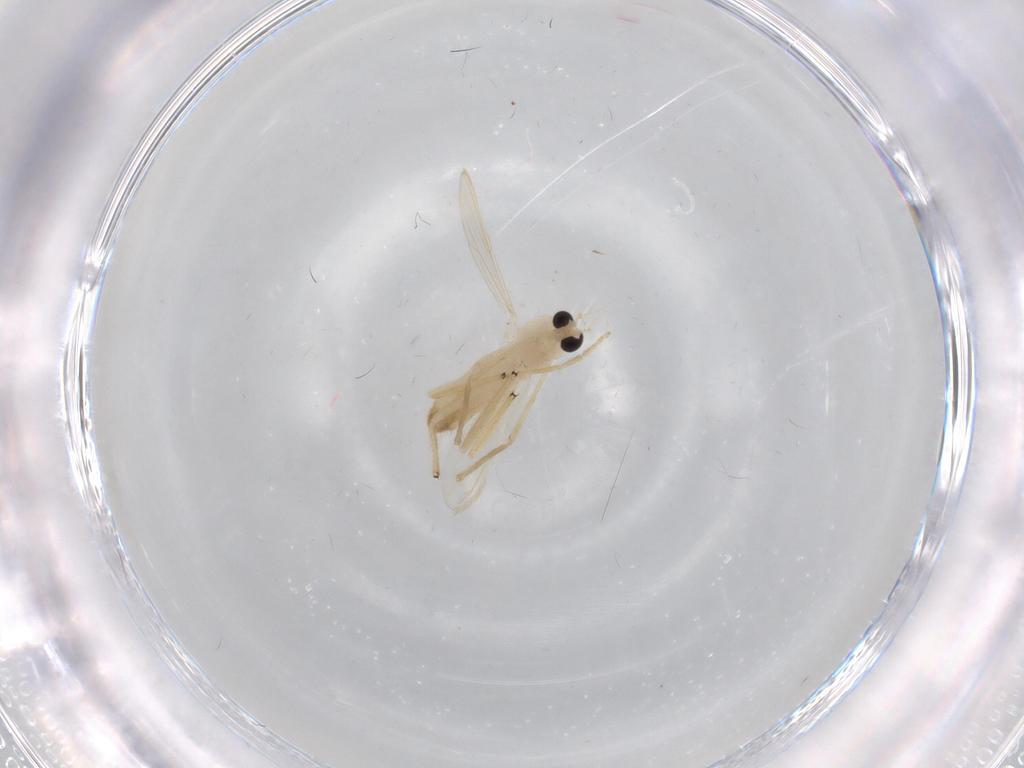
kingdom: Animalia
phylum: Arthropoda
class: Insecta
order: Diptera
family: Chironomidae
